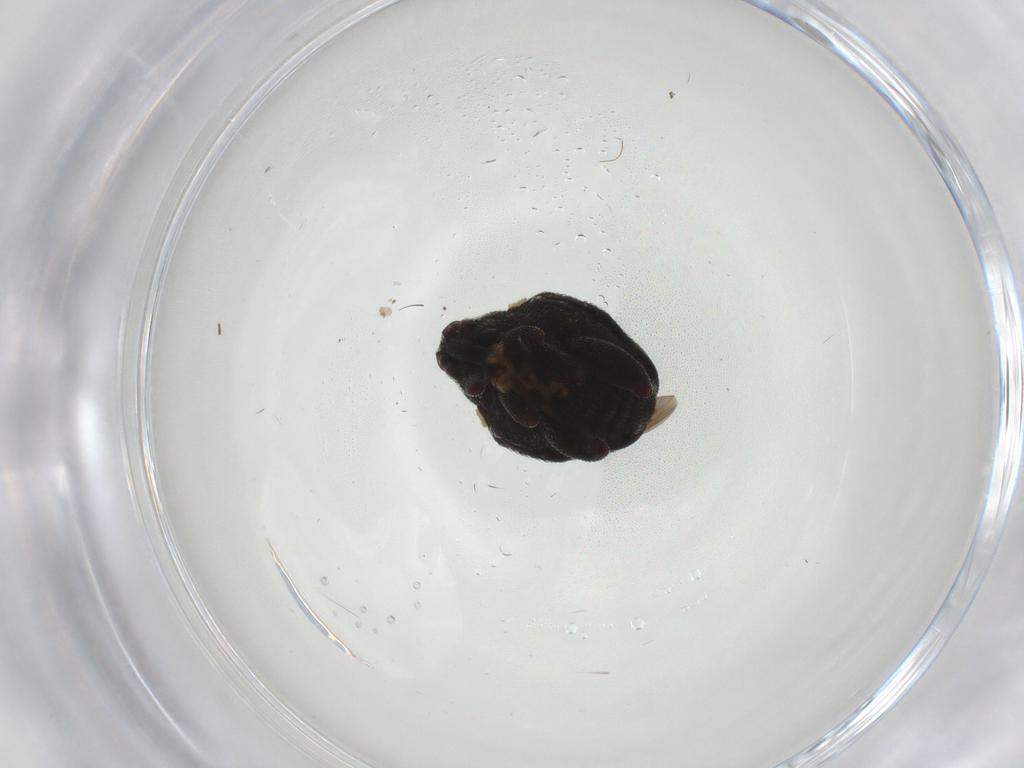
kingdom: Animalia
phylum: Arthropoda
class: Insecta
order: Coleoptera
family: Curculionidae
